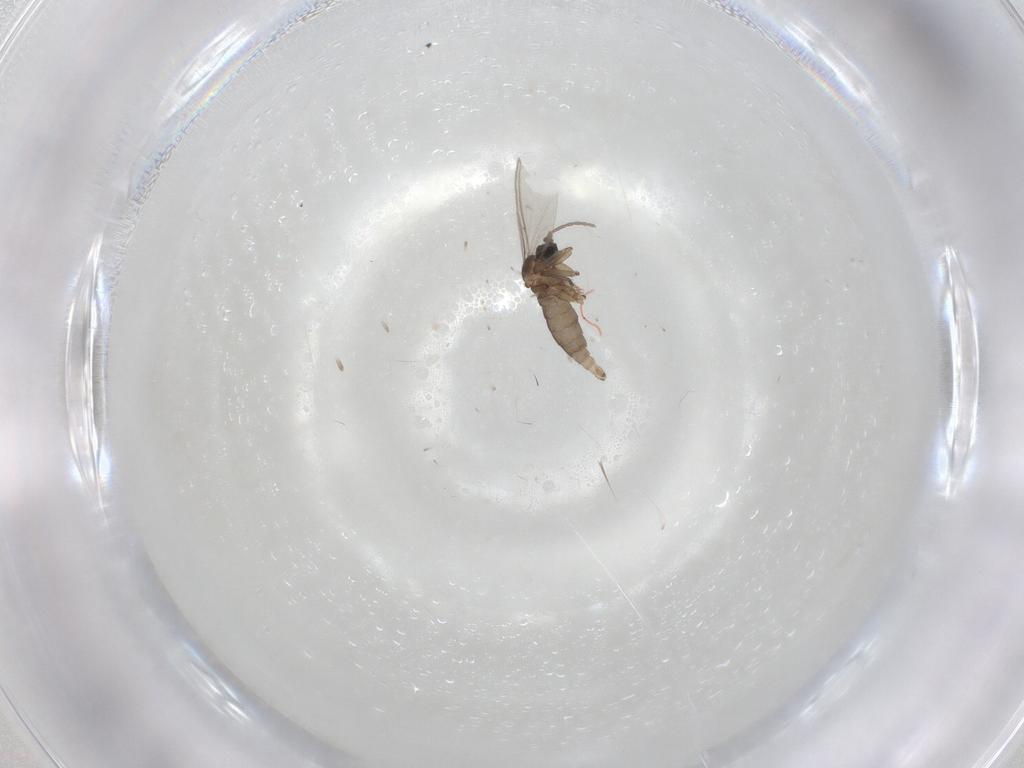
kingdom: Animalia
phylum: Arthropoda
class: Insecta
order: Diptera
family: Sciaridae
